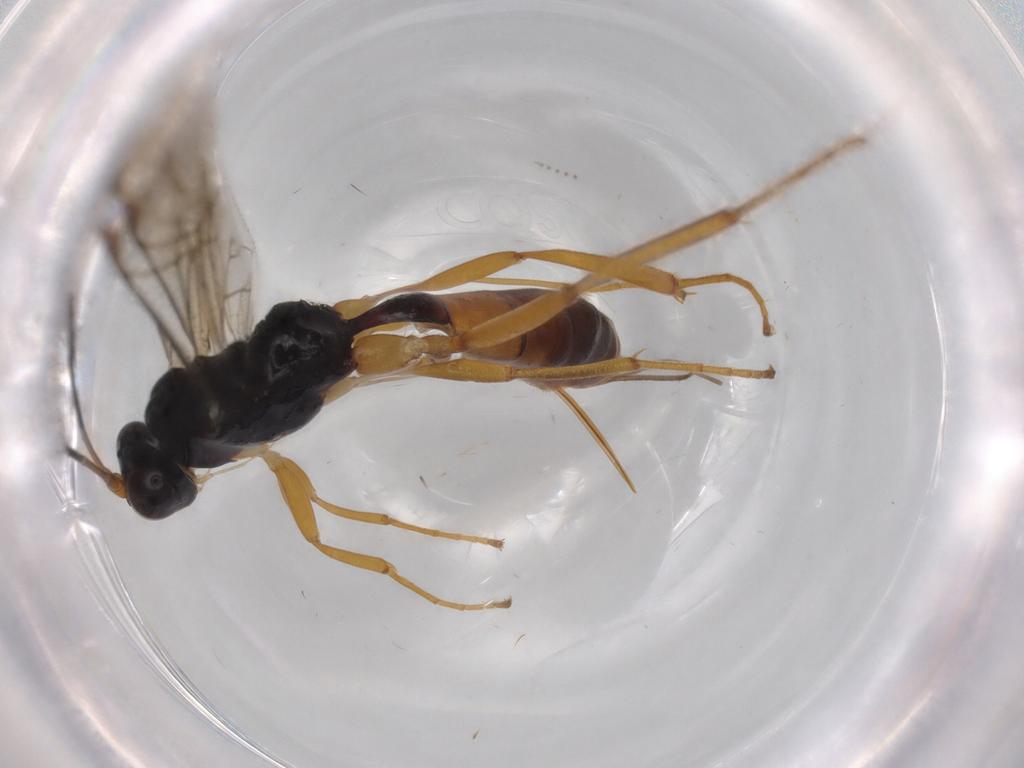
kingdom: Animalia
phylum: Arthropoda
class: Insecta
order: Hymenoptera
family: Ichneumonidae
